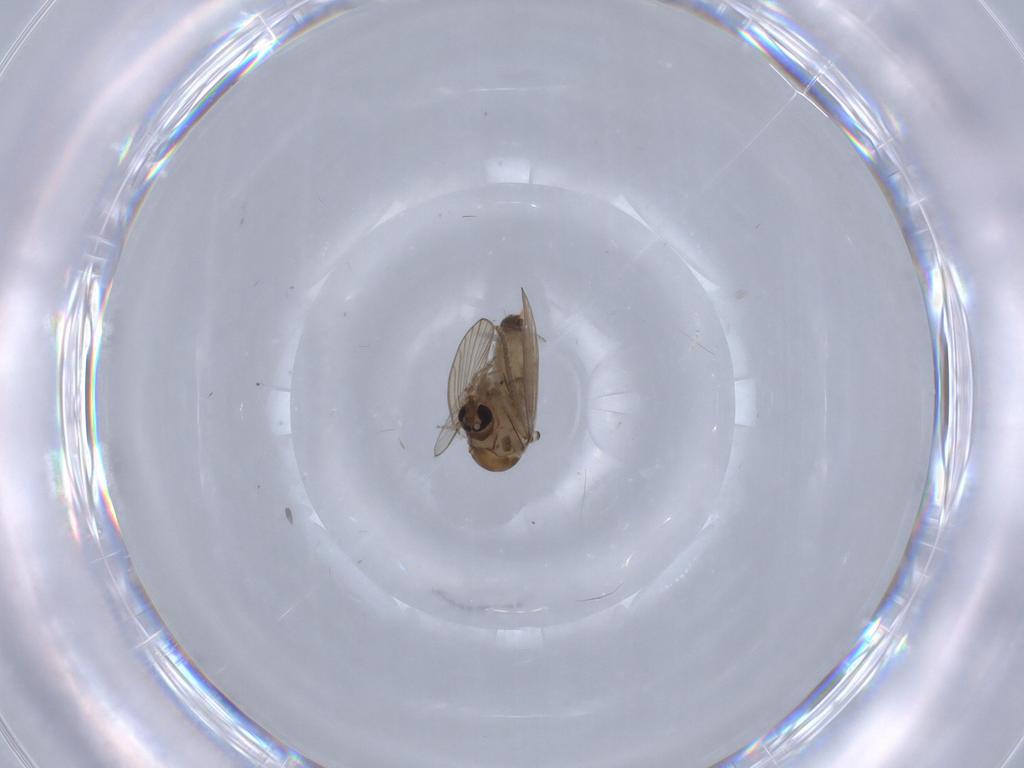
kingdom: Animalia
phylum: Arthropoda
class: Insecta
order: Diptera
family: Psychodidae
